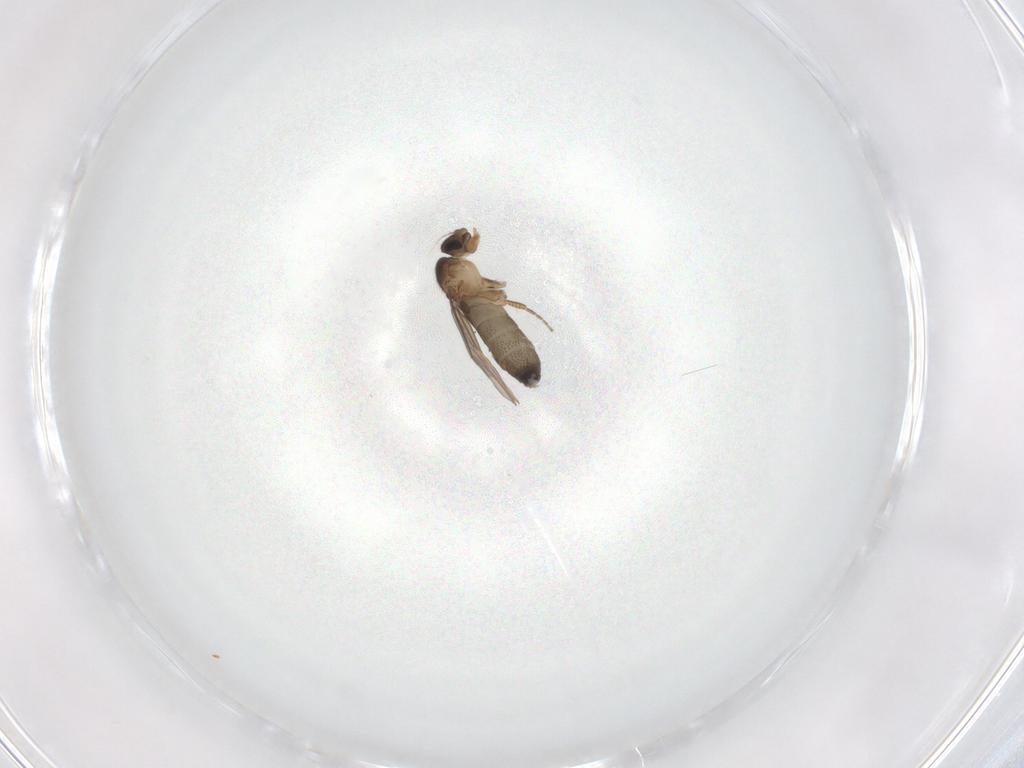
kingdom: Animalia
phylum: Arthropoda
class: Insecta
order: Diptera
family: Phoridae
